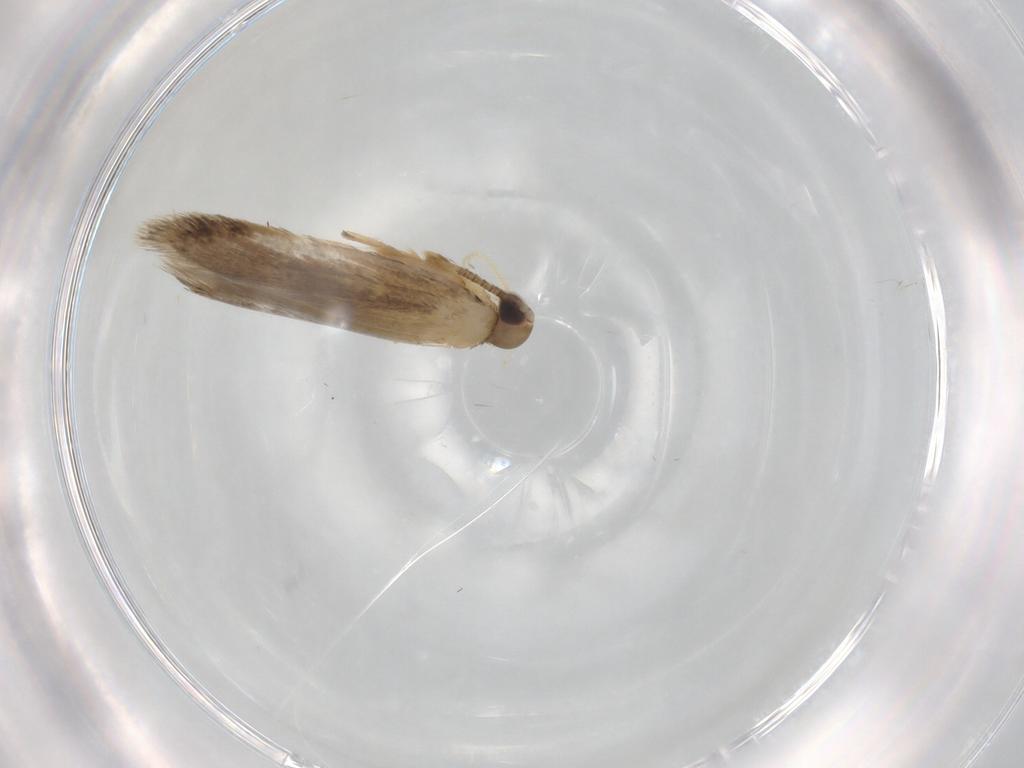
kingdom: Animalia
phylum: Arthropoda
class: Insecta
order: Lepidoptera
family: Autostichidae
